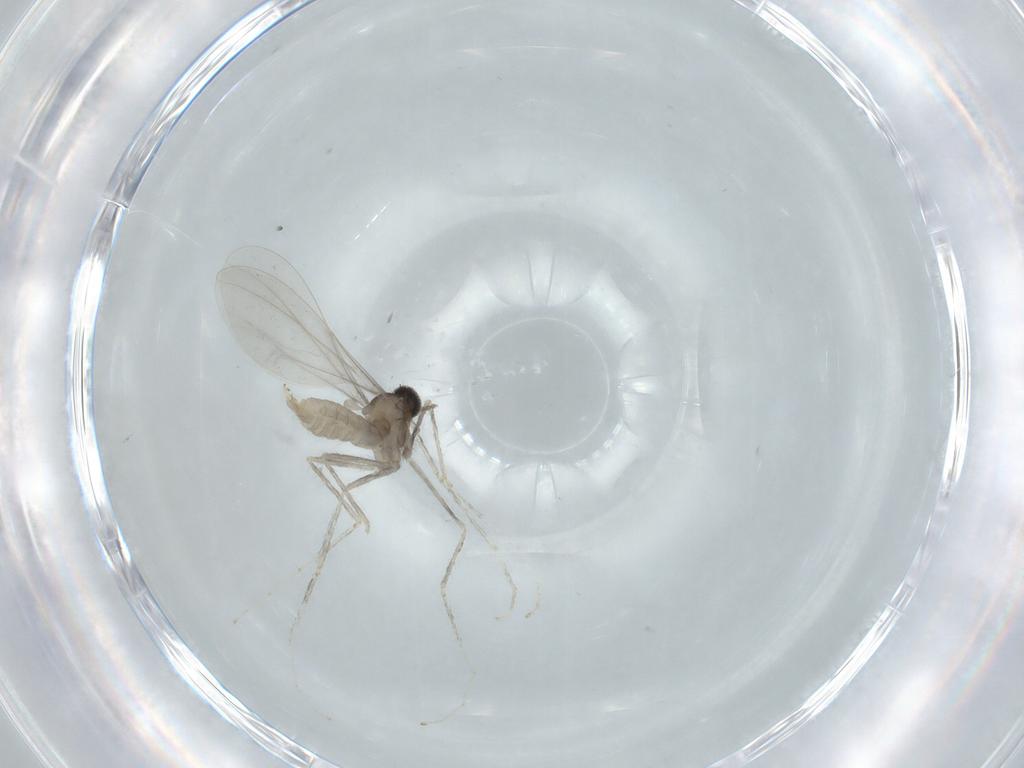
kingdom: Animalia
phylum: Arthropoda
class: Insecta
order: Diptera
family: Cecidomyiidae
